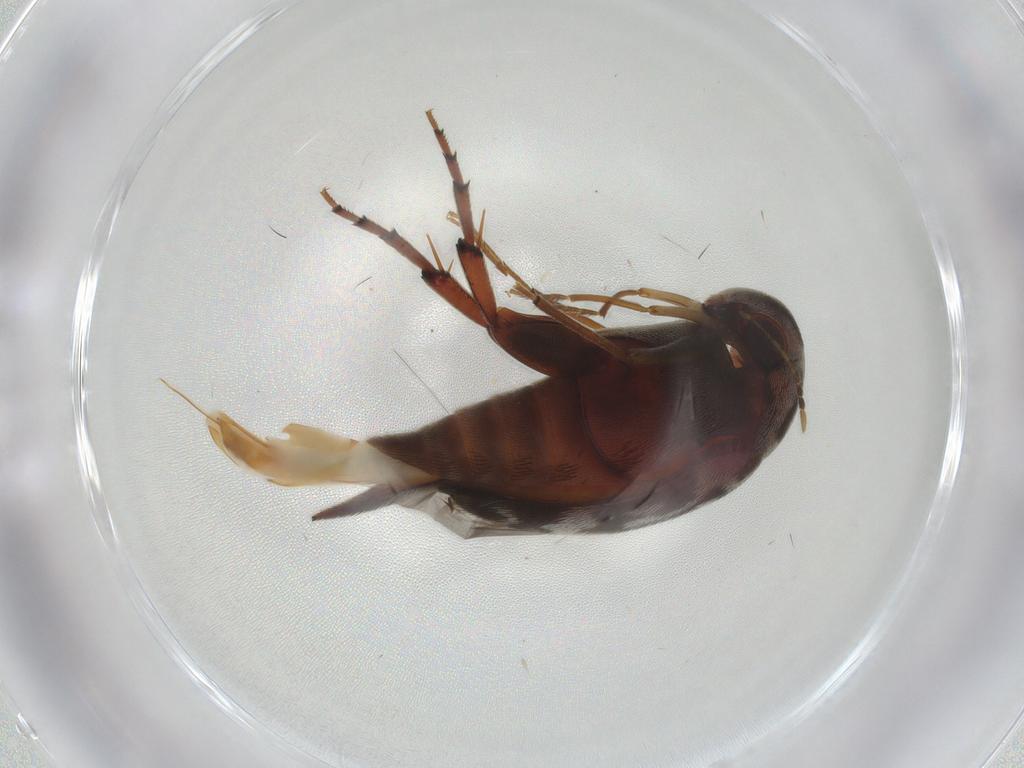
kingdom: Animalia
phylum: Arthropoda
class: Insecta
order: Coleoptera
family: Mordellidae
